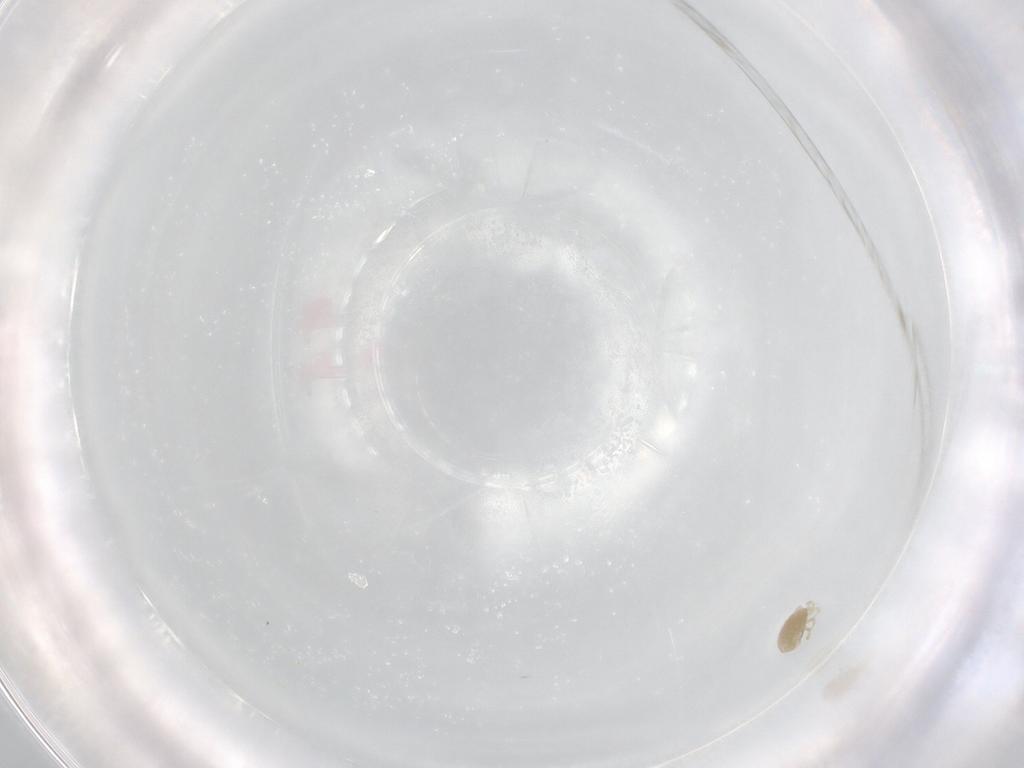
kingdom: Animalia
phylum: Arthropoda
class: Arachnida
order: Mesostigmata
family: Melicharidae
